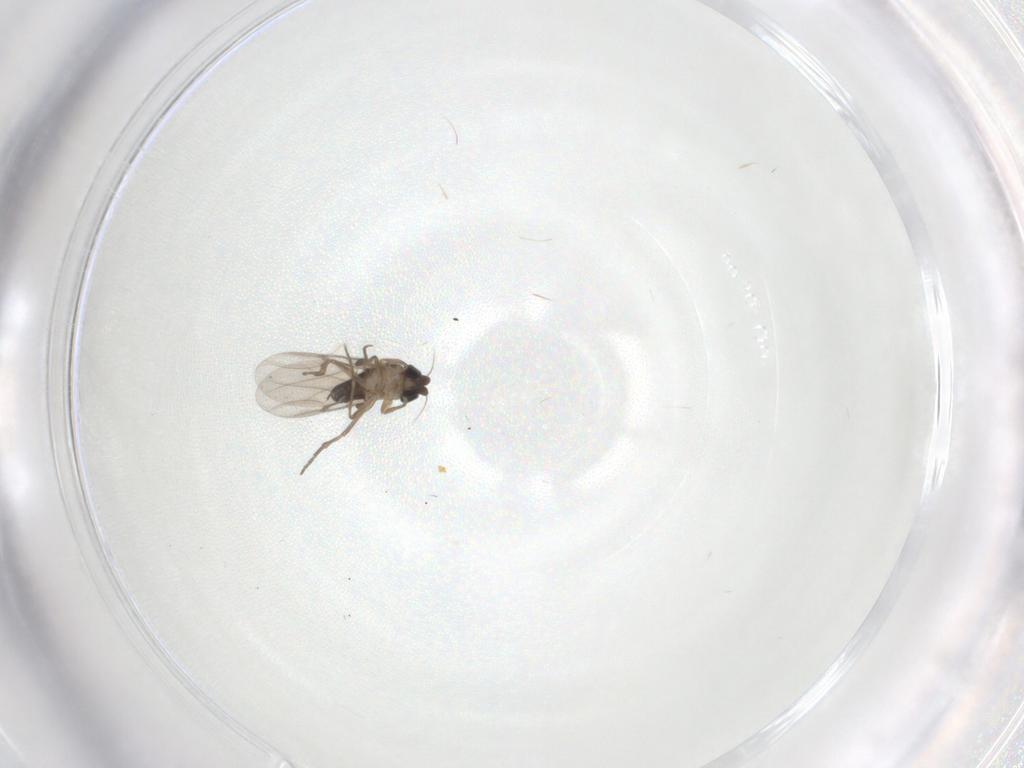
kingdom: Animalia
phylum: Arthropoda
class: Insecta
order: Diptera
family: Phoridae
